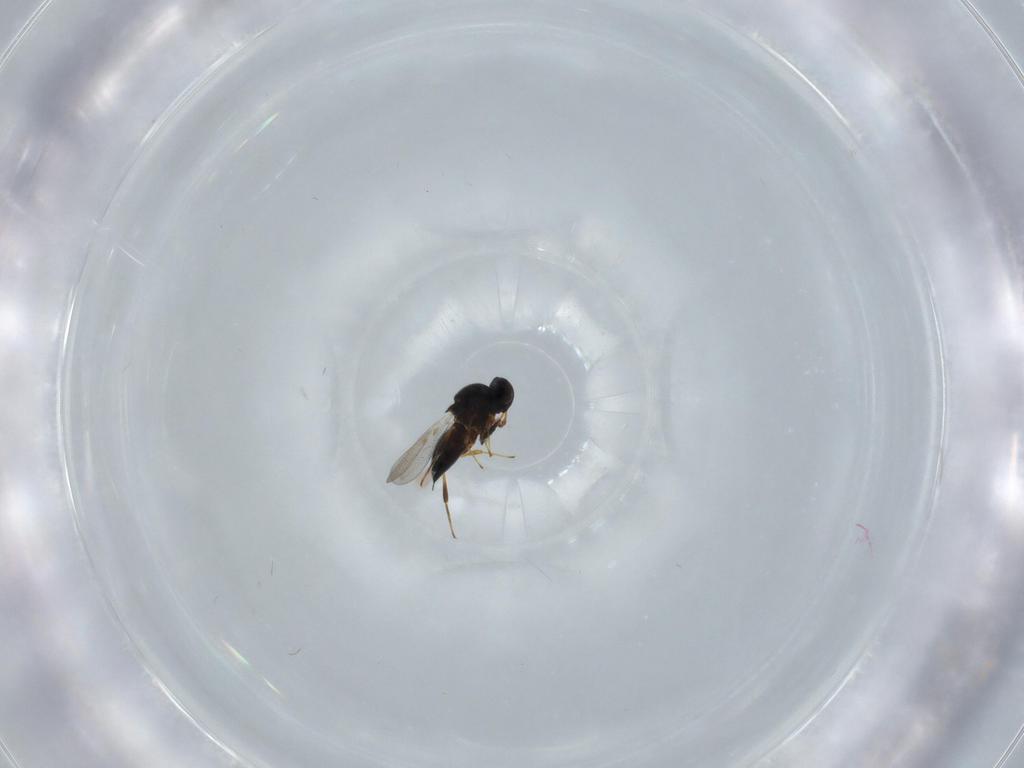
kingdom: Animalia
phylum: Arthropoda
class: Insecta
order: Hymenoptera
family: Platygastridae
